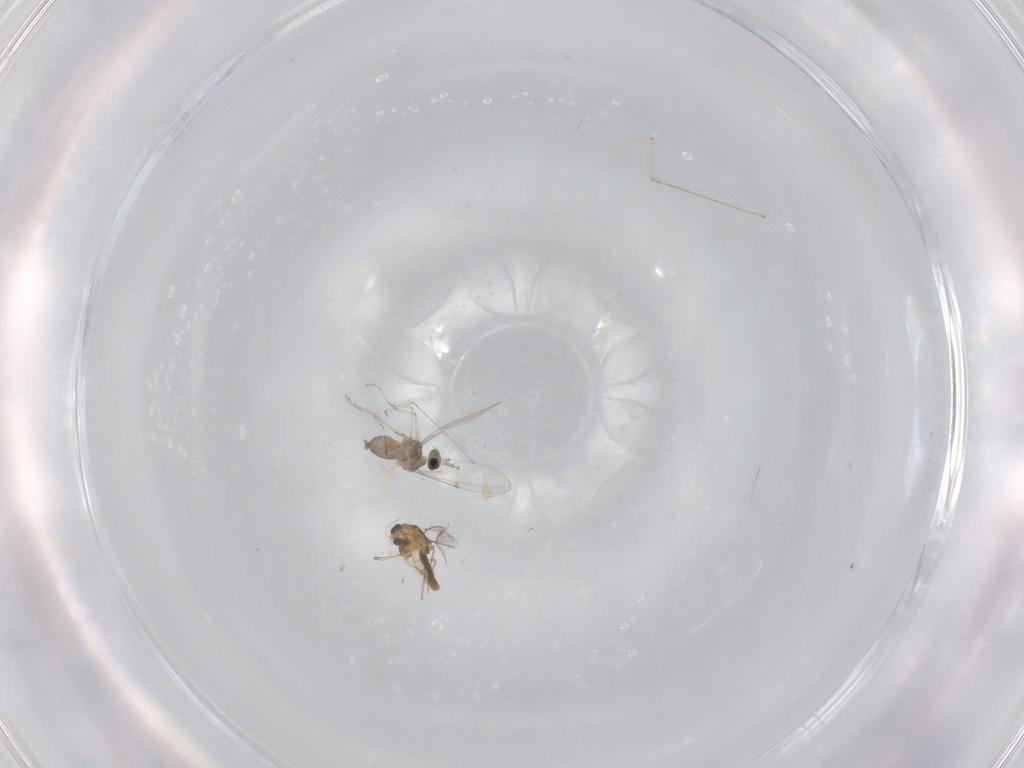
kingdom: Animalia
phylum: Arthropoda
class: Insecta
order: Diptera
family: Cecidomyiidae
